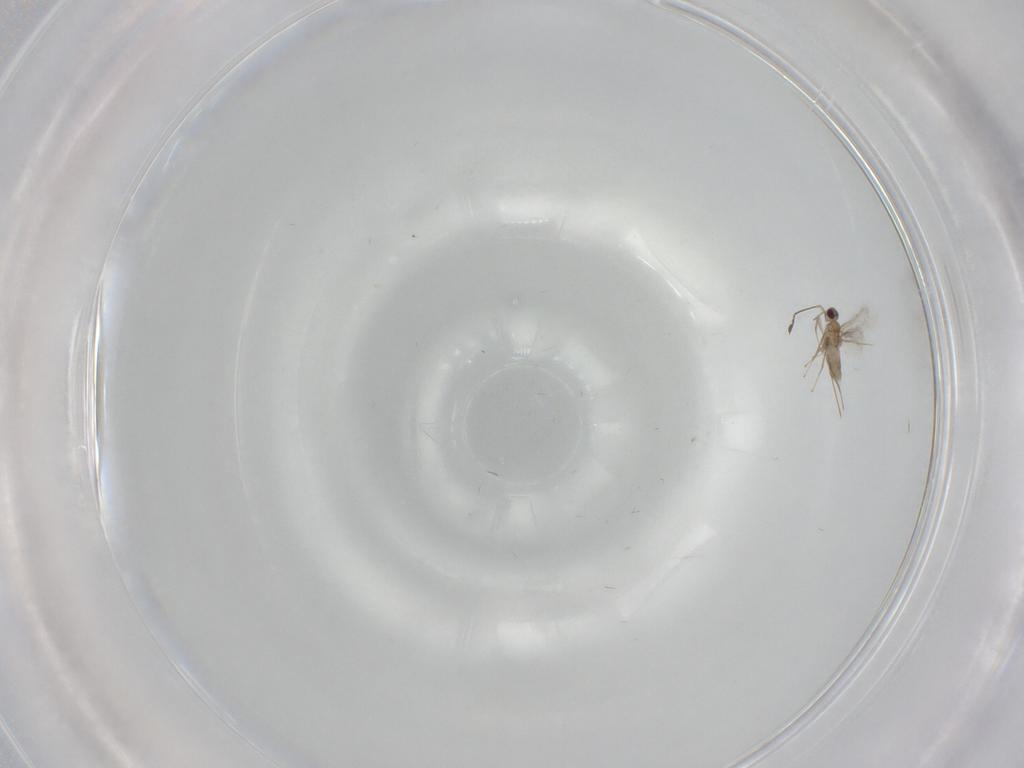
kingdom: Animalia
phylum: Arthropoda
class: Insecta
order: Hymenoptera
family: Mymaridae
